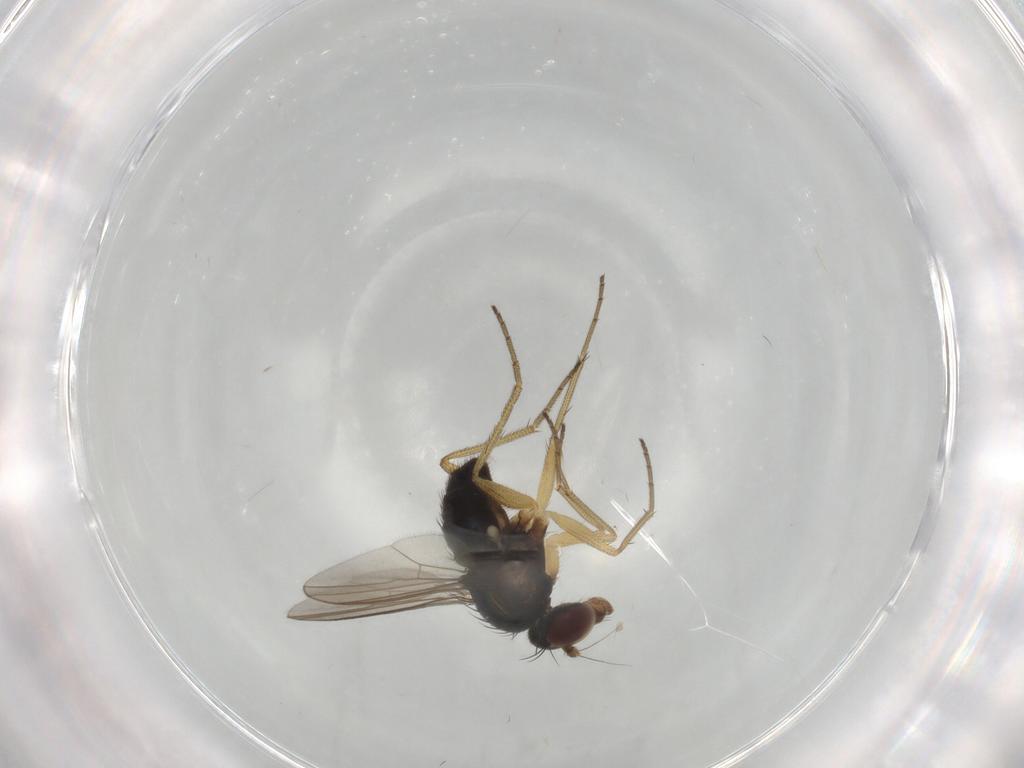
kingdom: Animalia
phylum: Arthropoda
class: Insecta
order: Diptera
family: Dolichopodidae
